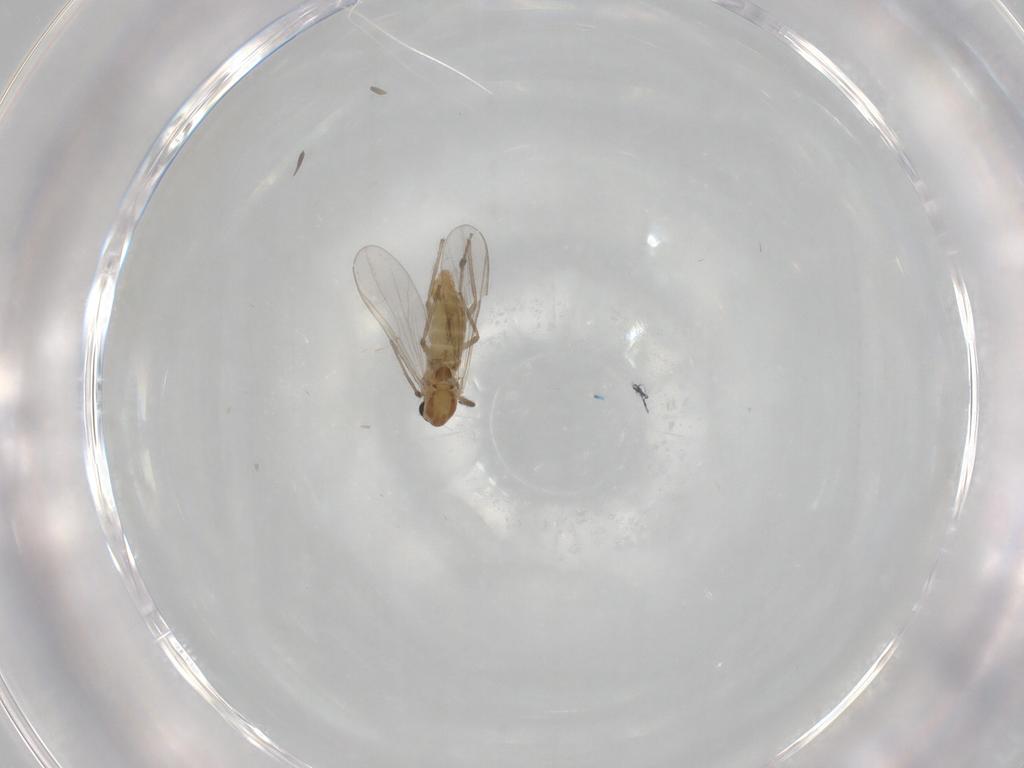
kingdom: Animalia
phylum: Arthropoda
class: Insecta
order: Diptera
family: Chironomidae
